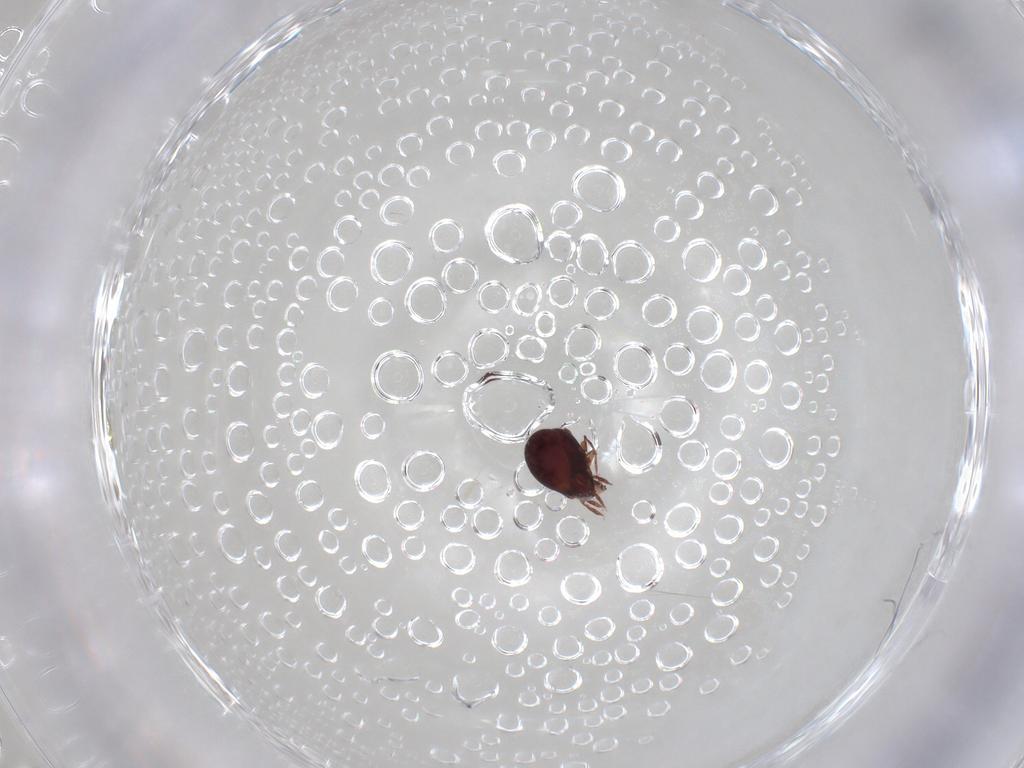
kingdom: Animalia
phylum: Arthropoda
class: Arachnida
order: Sarcoptiformes
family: Humerobatidae
